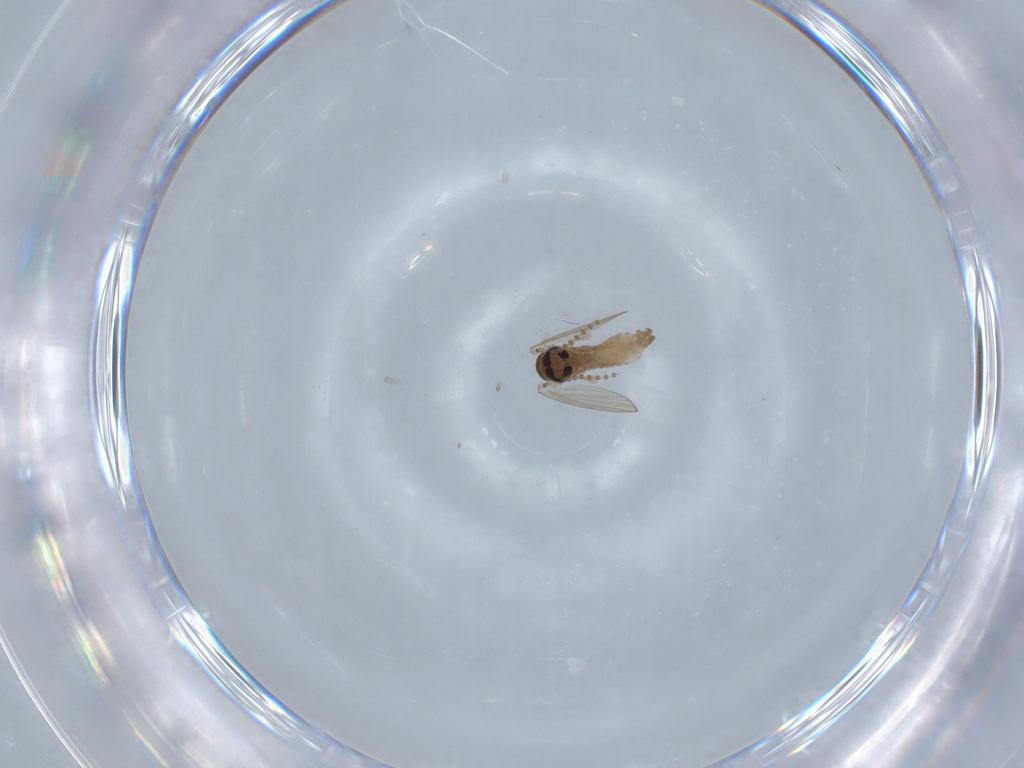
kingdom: Animalia
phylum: Arthropoda
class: Insecta
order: Diptera
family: Psychodidae
